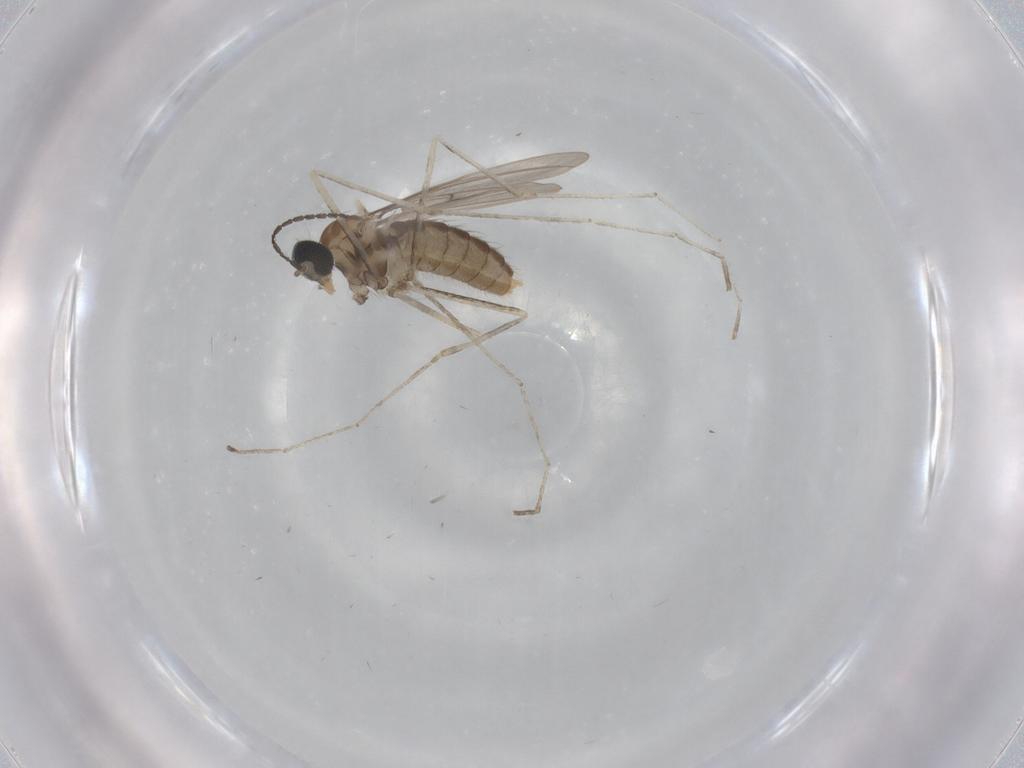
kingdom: Animalia
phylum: Arthropoda
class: Insecta
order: Diptera
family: Cecidomyiidae
